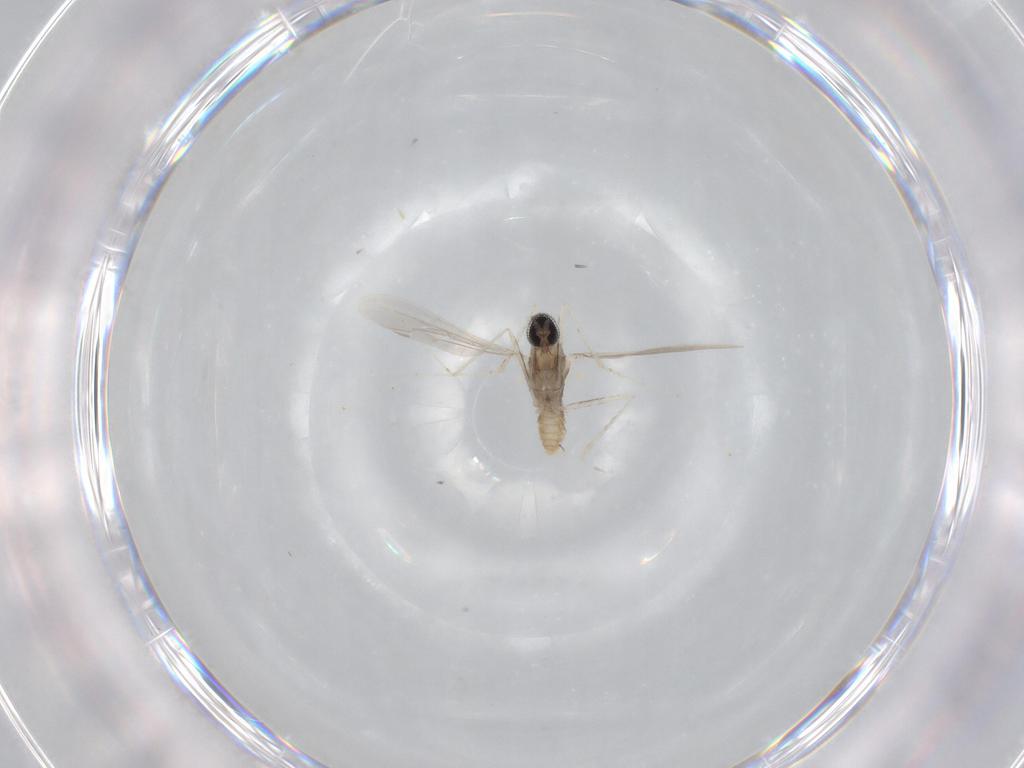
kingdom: Animalia
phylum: Arthropoda
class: Insecta
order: Diptera
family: Cecidomyiidae
